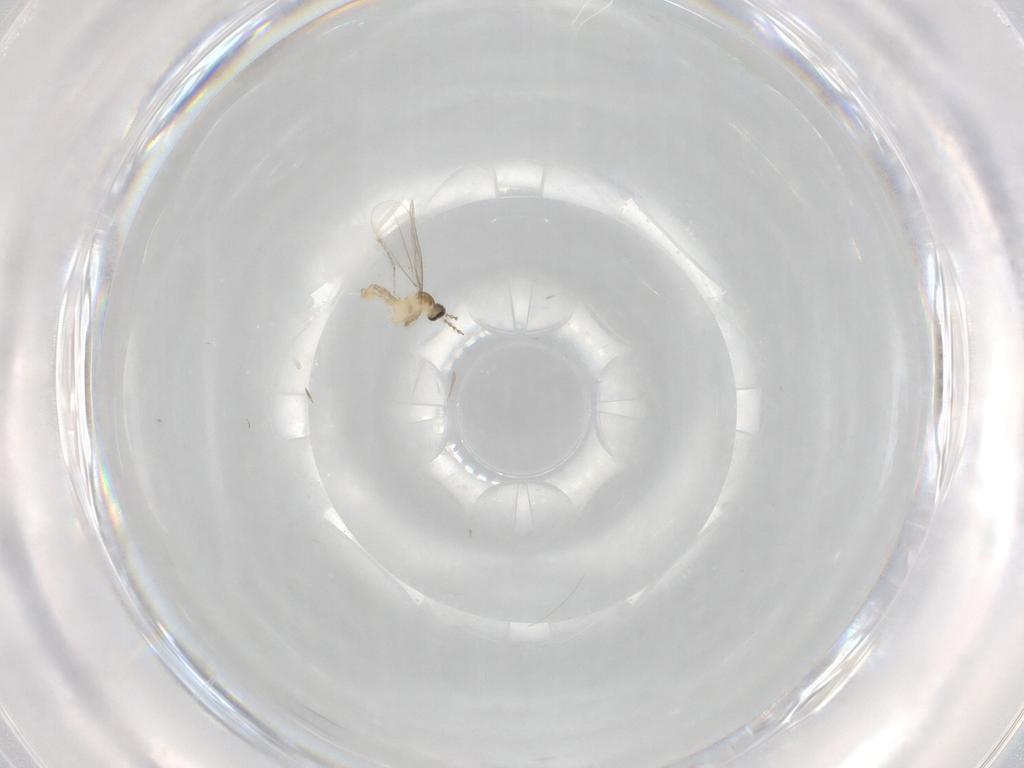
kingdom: Animalia
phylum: Arthropoda
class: Insecta
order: Diptera
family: Cecidomyiidae
